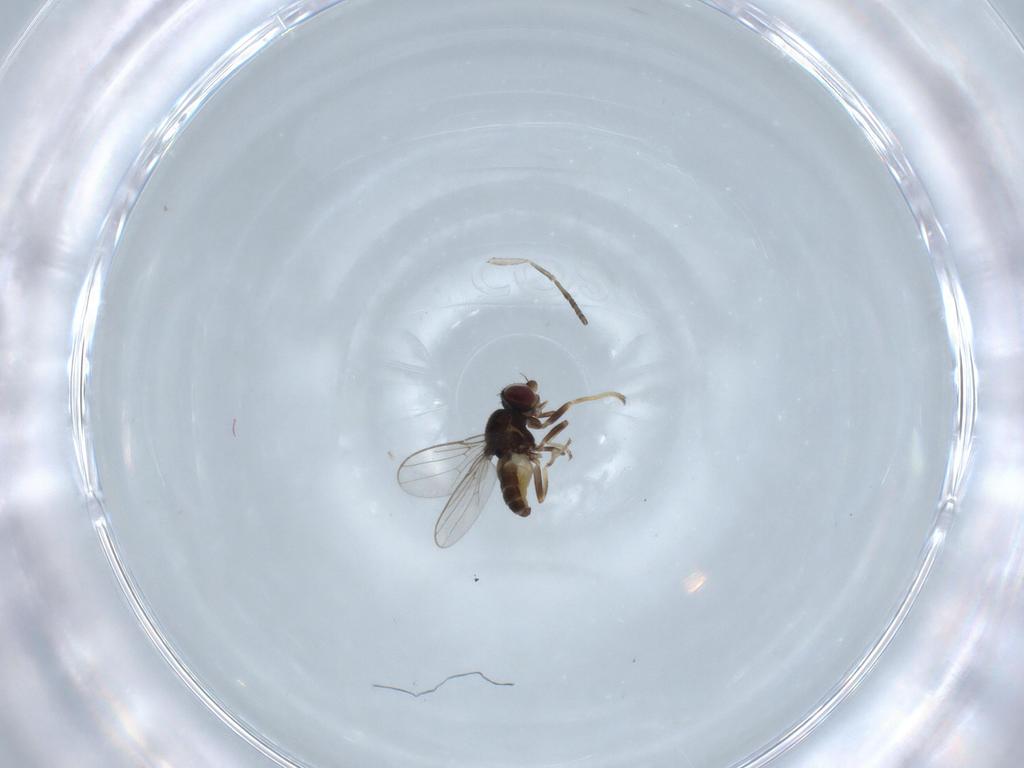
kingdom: Animalia
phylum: Arthropoda
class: Insecta
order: Diptera
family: Chloropidae
